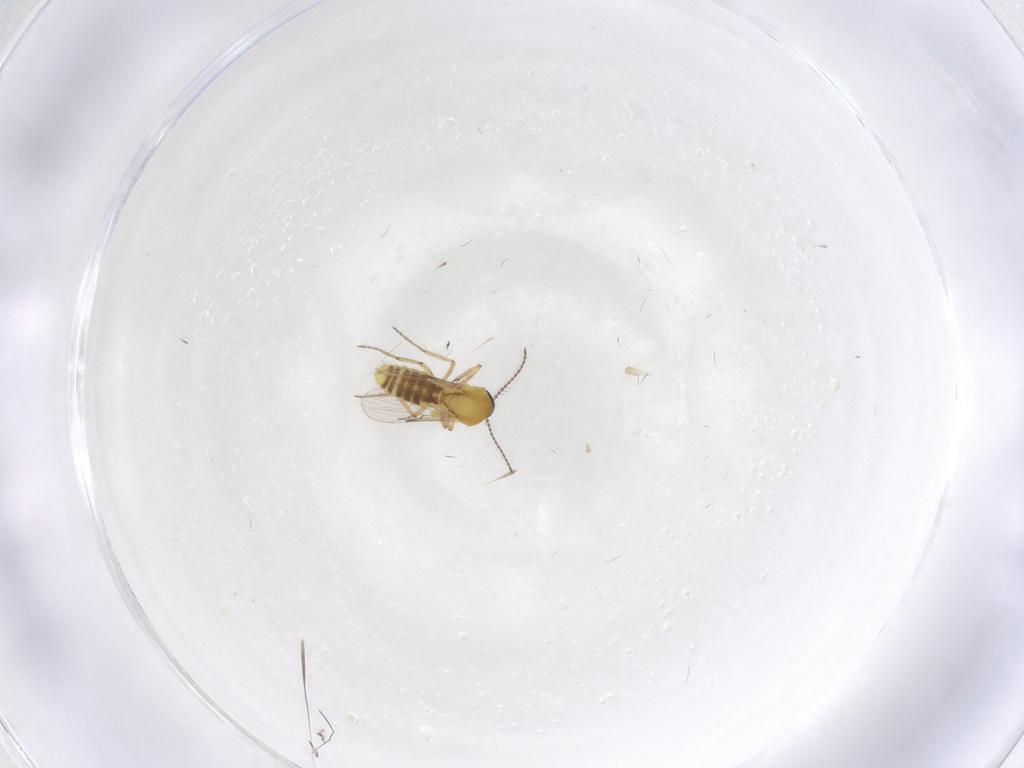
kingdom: Animalia
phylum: Arthropoda
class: Insecta
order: Diptera
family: Ceratopogonidae
